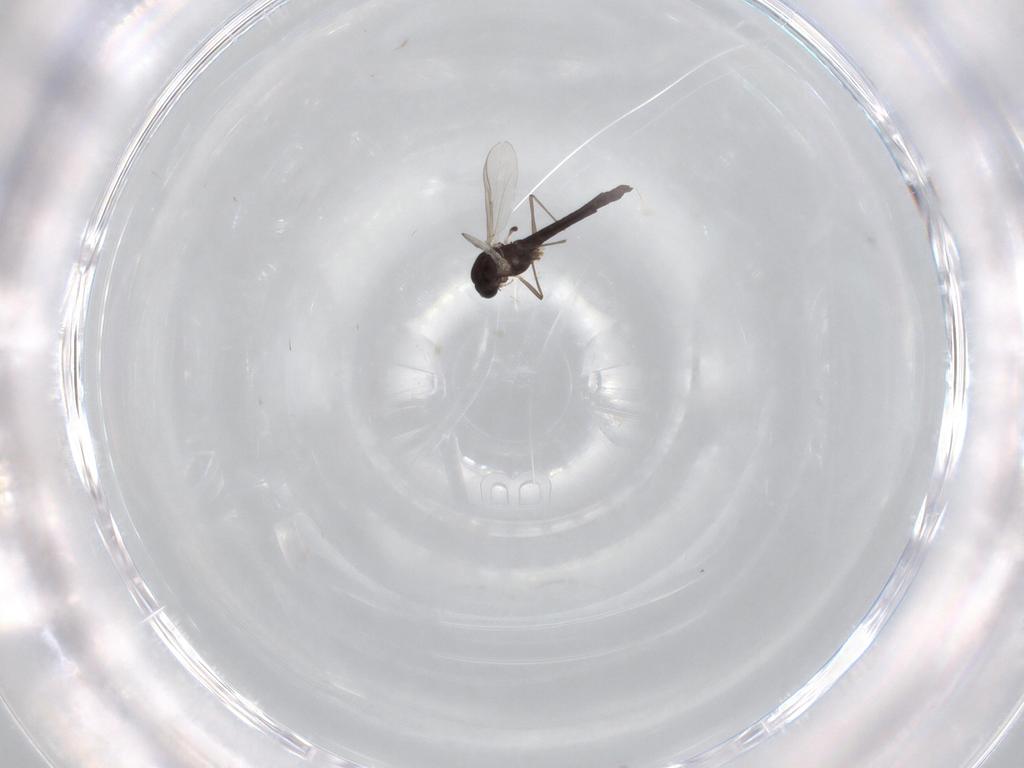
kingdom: Animalia
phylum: Arthropoda
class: Insecta
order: Diptera
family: Chironomidae
